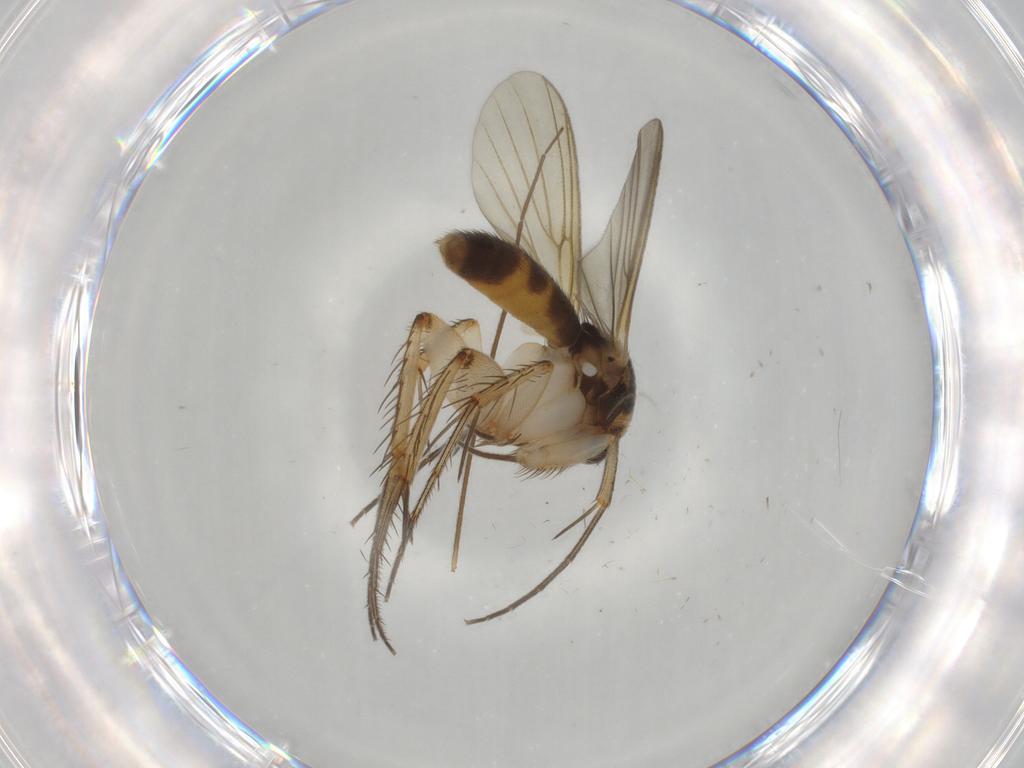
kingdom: Animalia
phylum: Arthropoda
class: Insecta
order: Diptera
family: Mycetophilidae
